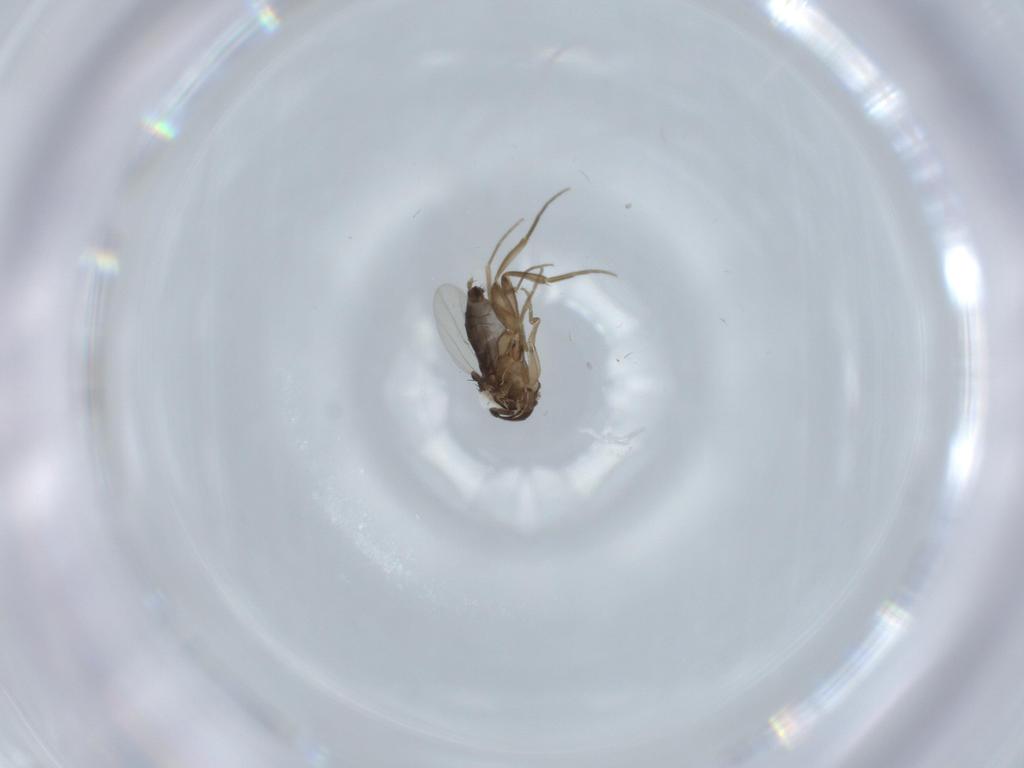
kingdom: Animalia
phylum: Arthropoda
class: Insecta
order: Diptera
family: Phoridae
